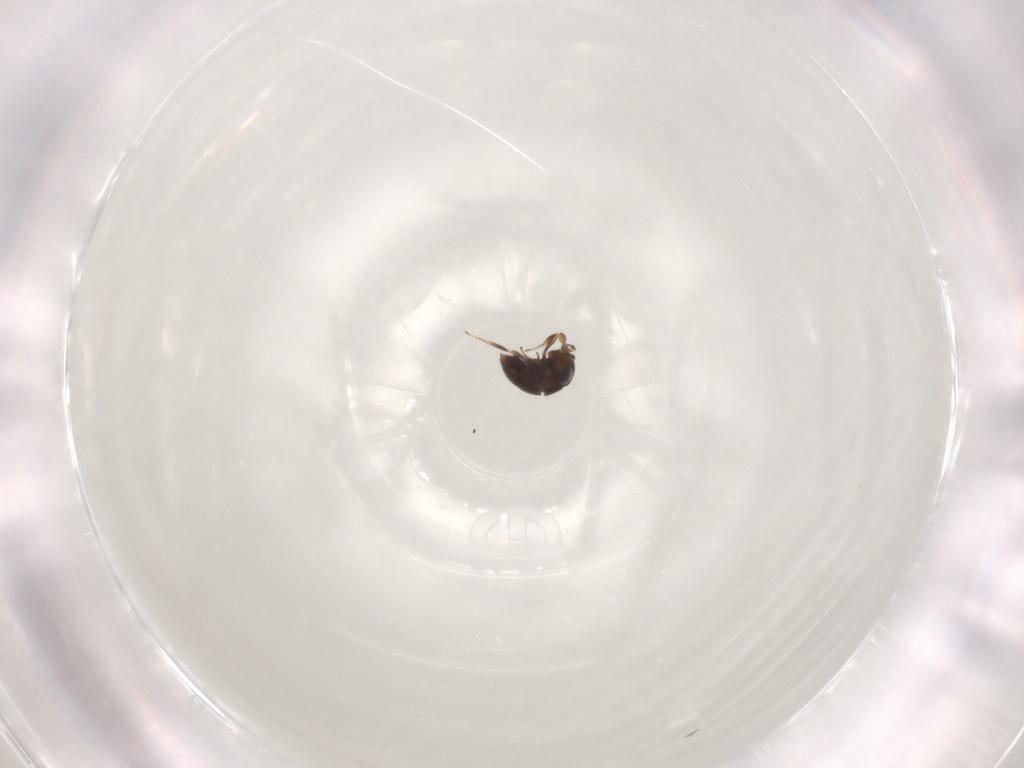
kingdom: Animalia
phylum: Arthropoda
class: Insecta
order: Hymenoptera
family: Scelionidae
